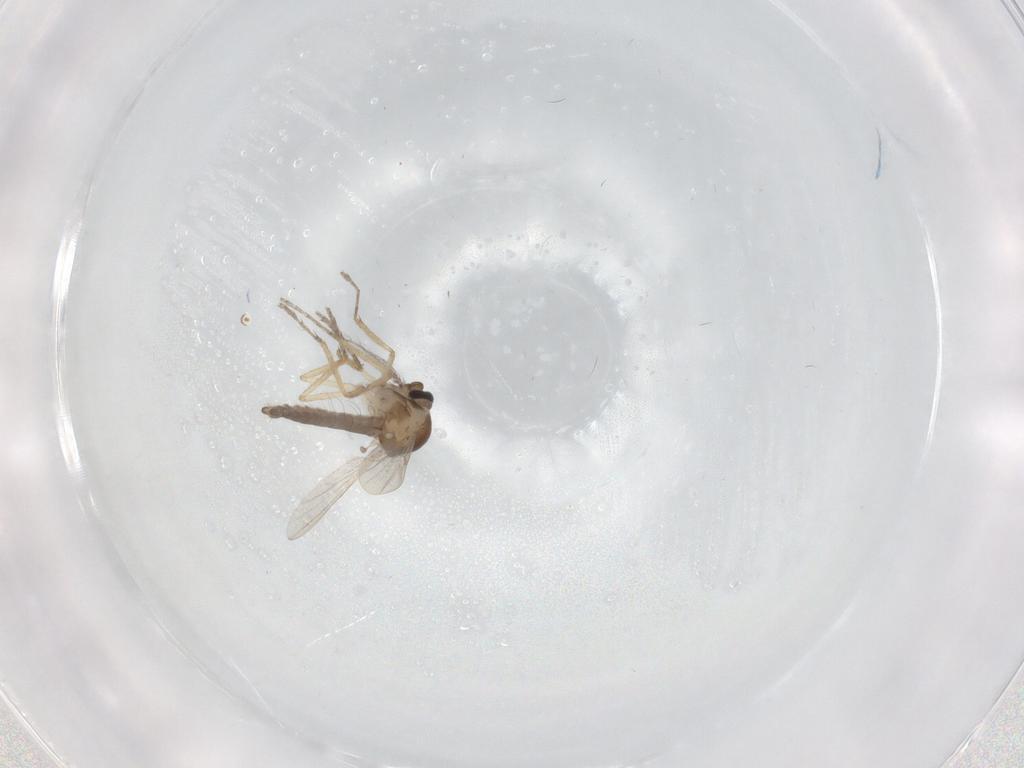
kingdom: Animalia
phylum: Arthropoda
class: Insecta
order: Diptera
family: Ceratopogonidae
